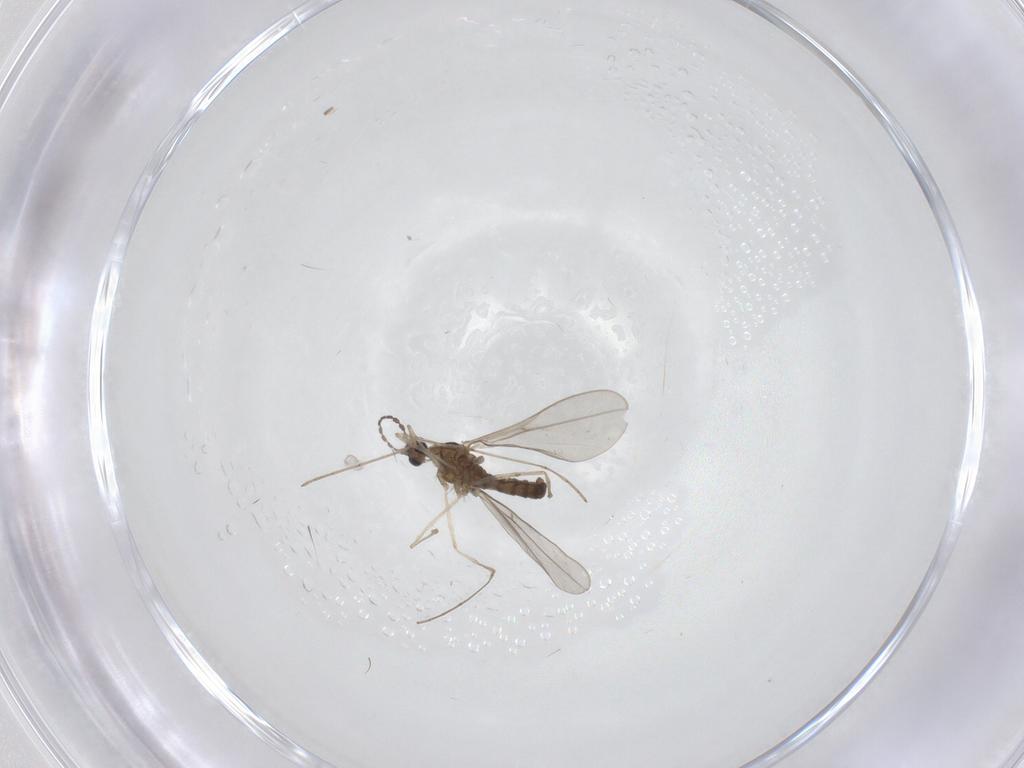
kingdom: Animalia
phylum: Arthropoda
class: Insecta
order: Diptera
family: Cecidomyiidae
